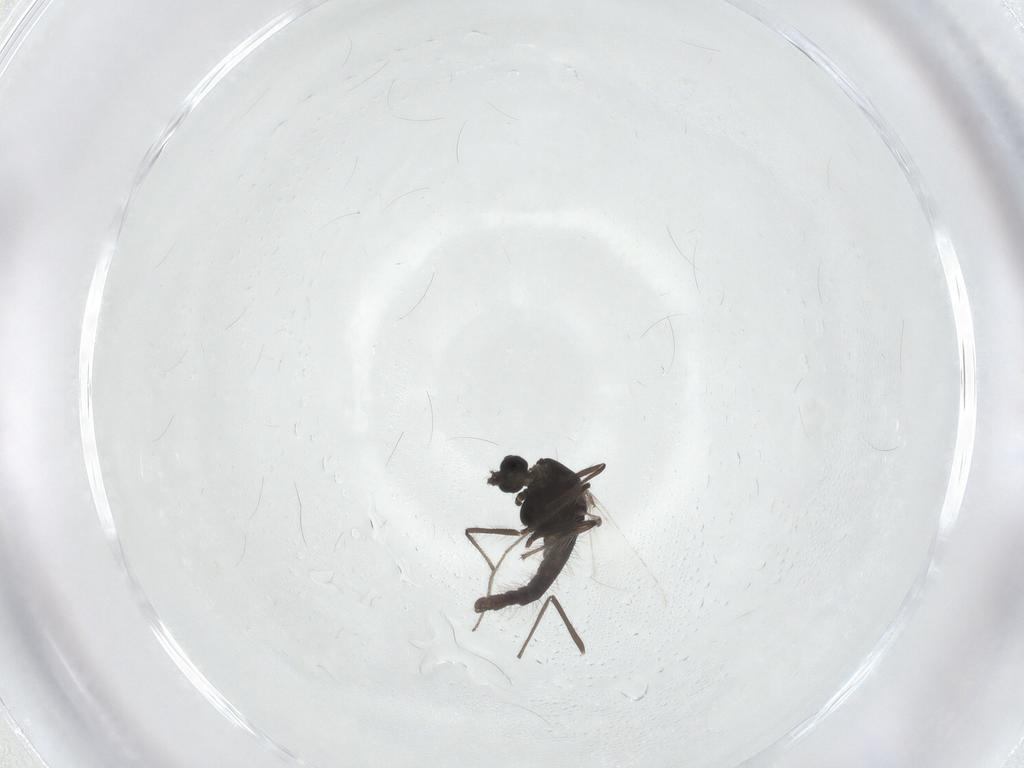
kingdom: Animalia
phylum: Arthropoda
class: Insecta
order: Diptera
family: Chironomidae
